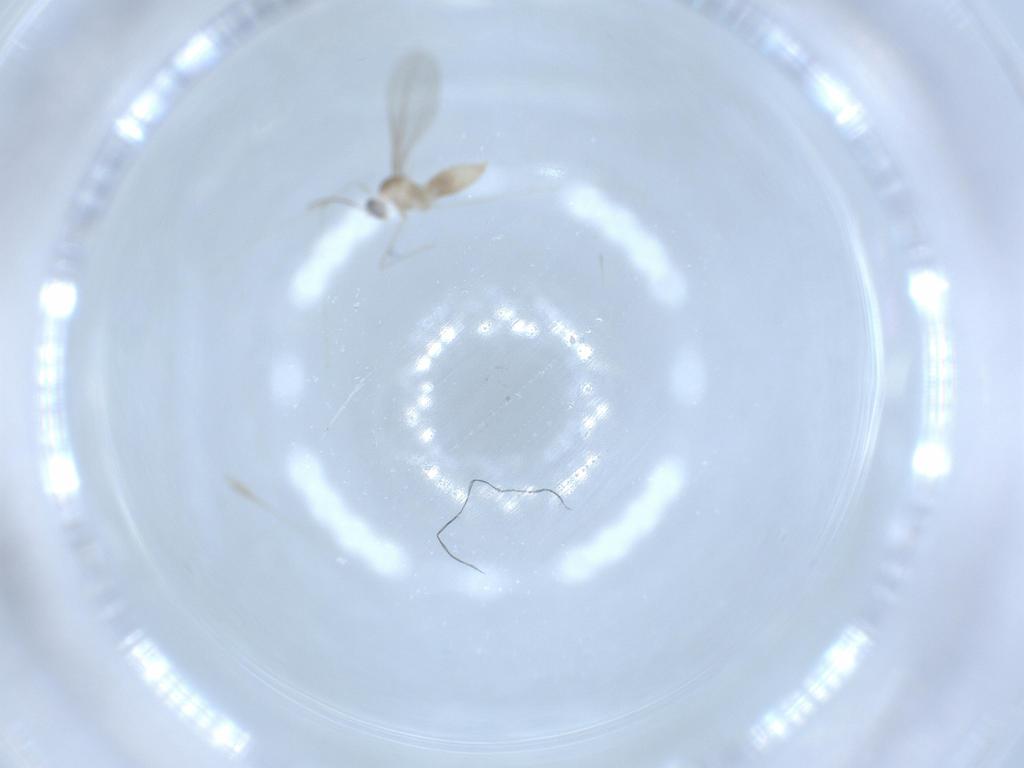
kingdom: Animalia
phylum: Arthropoda
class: Insecta
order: Diptera
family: Cecidomyiidae
